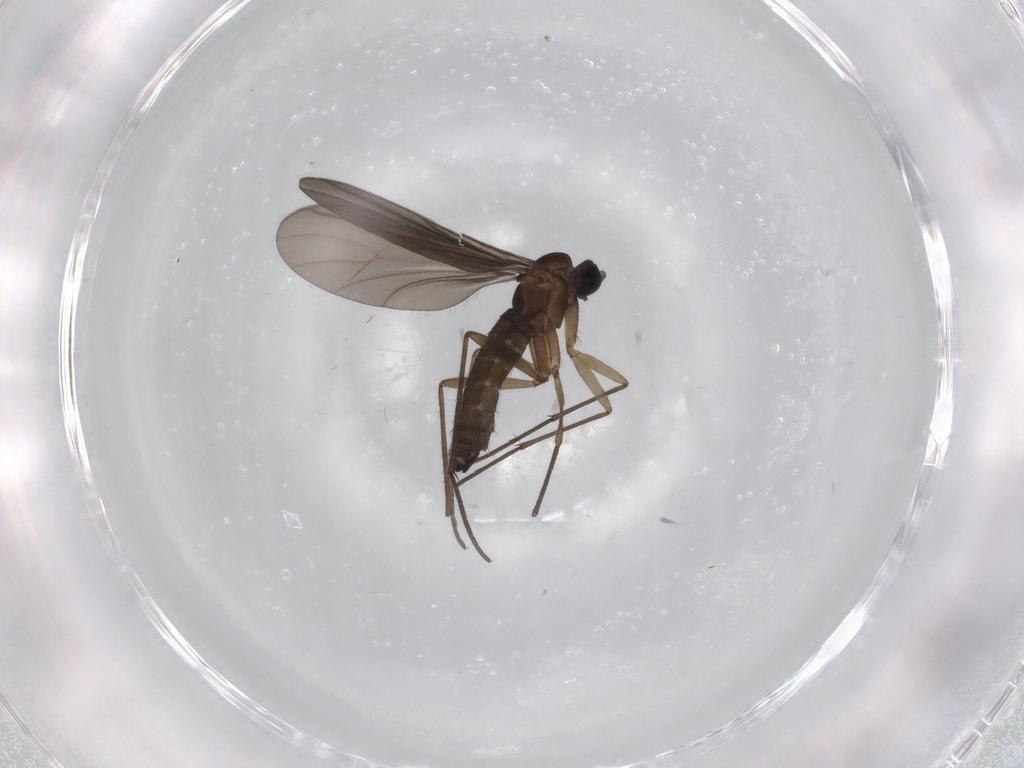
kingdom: Animalia
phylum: Arthropoda
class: Insecta
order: Diptera
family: Sciaridae
